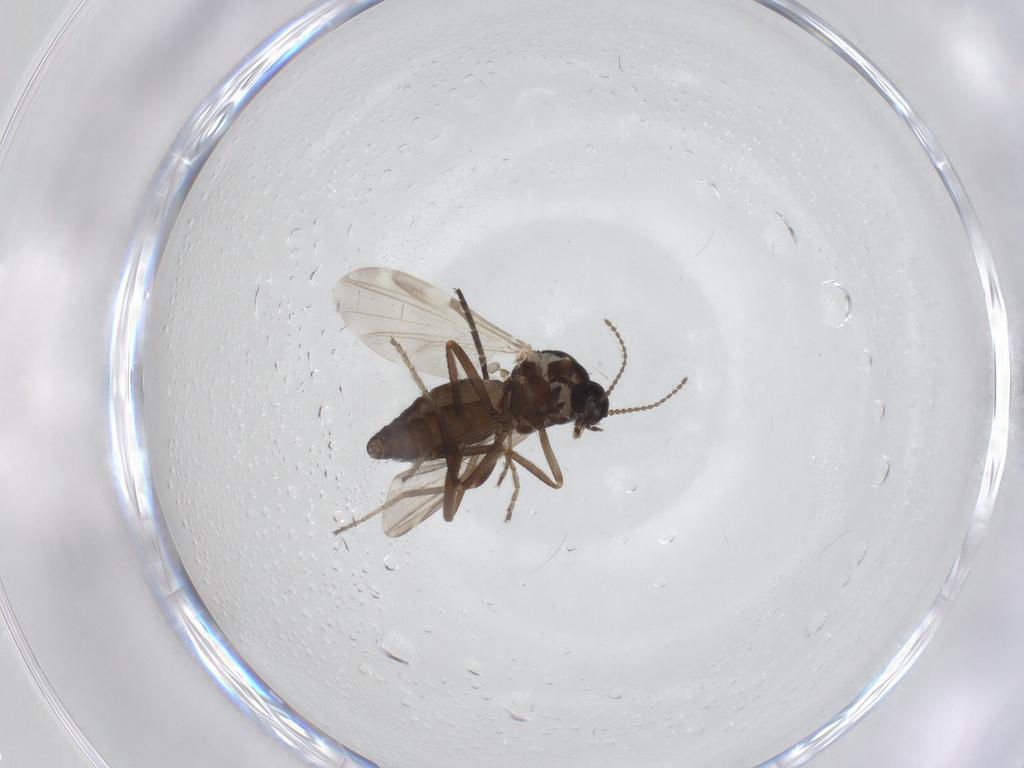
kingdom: Animalia
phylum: Arthropoda
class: Insecta
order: Diptera
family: Ceratopogonidae
